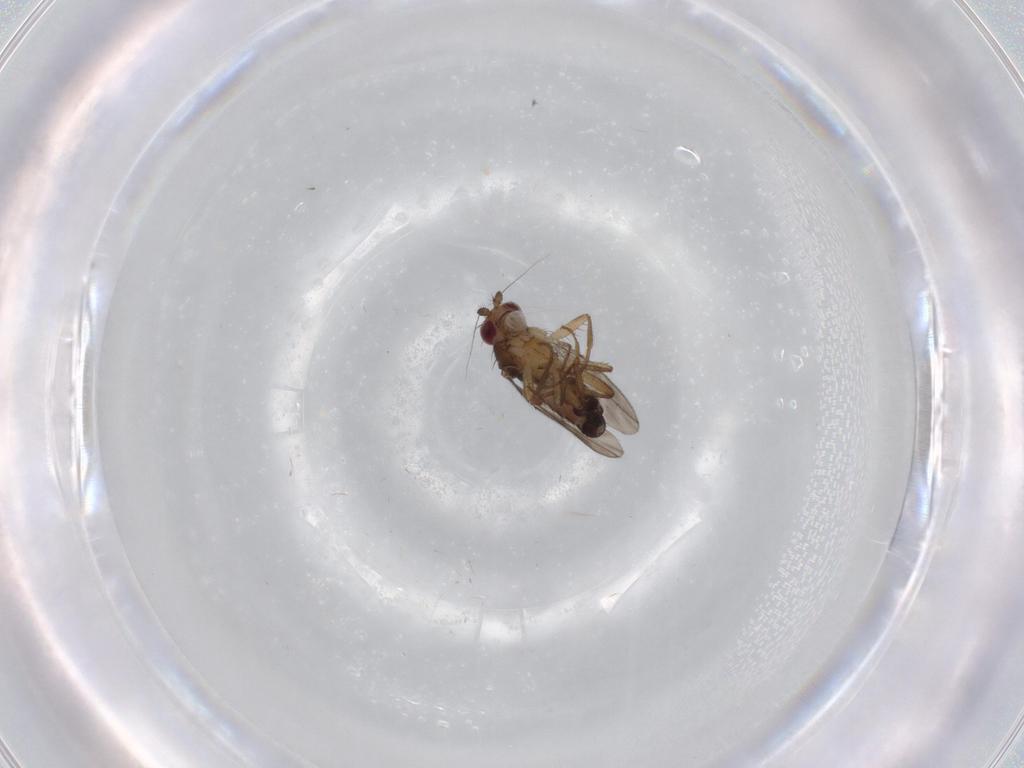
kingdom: Animalia
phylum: Arthropoda
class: Insecta
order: Diptera
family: Sphaeroceridae
